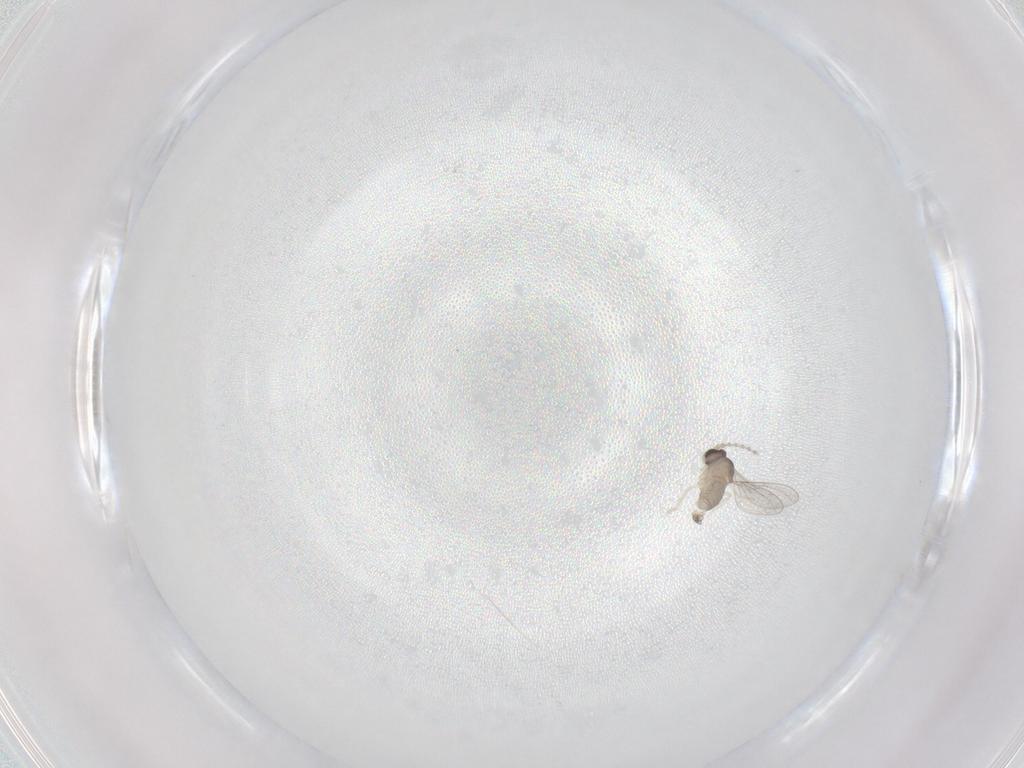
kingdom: Animalia
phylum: Arthropoda
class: Insecta
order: Diptera
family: Cecidomyiidae
